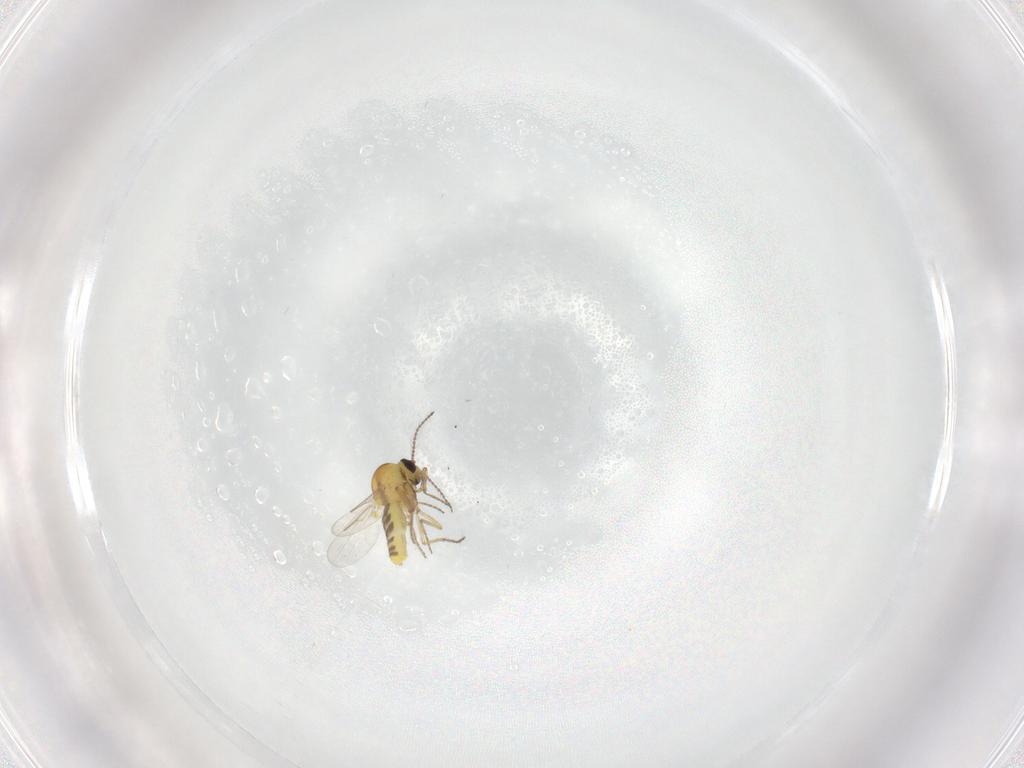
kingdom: Animalia
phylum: Arthropoda
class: Insecta
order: Diptera
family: Ceratopogonidae
